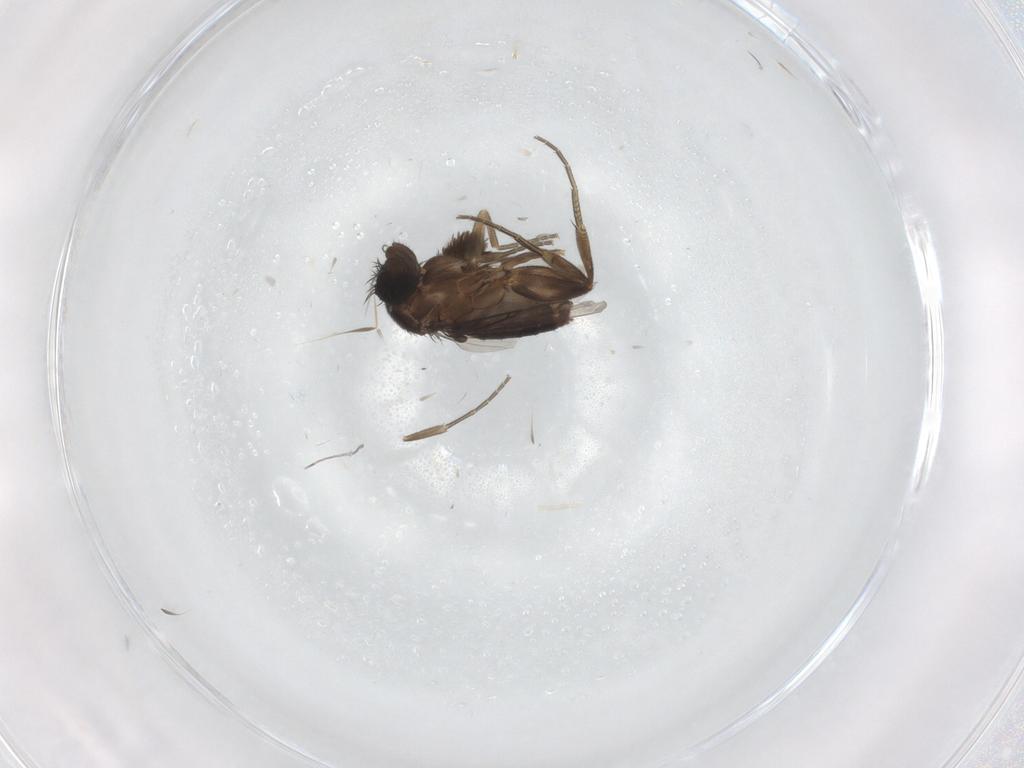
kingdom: Animalia
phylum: Arthropoda
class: Insecta
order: Diptera
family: Phoridae
